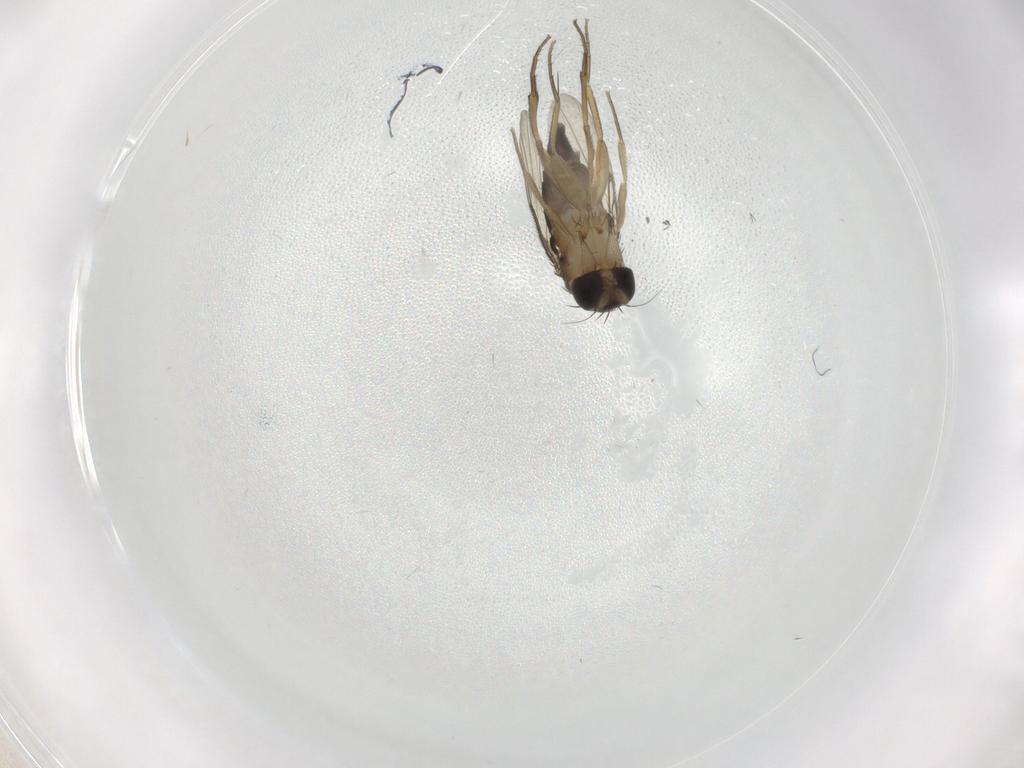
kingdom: Animalia
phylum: Arthropoda
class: Insecta
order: Diptera
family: Phoridae
